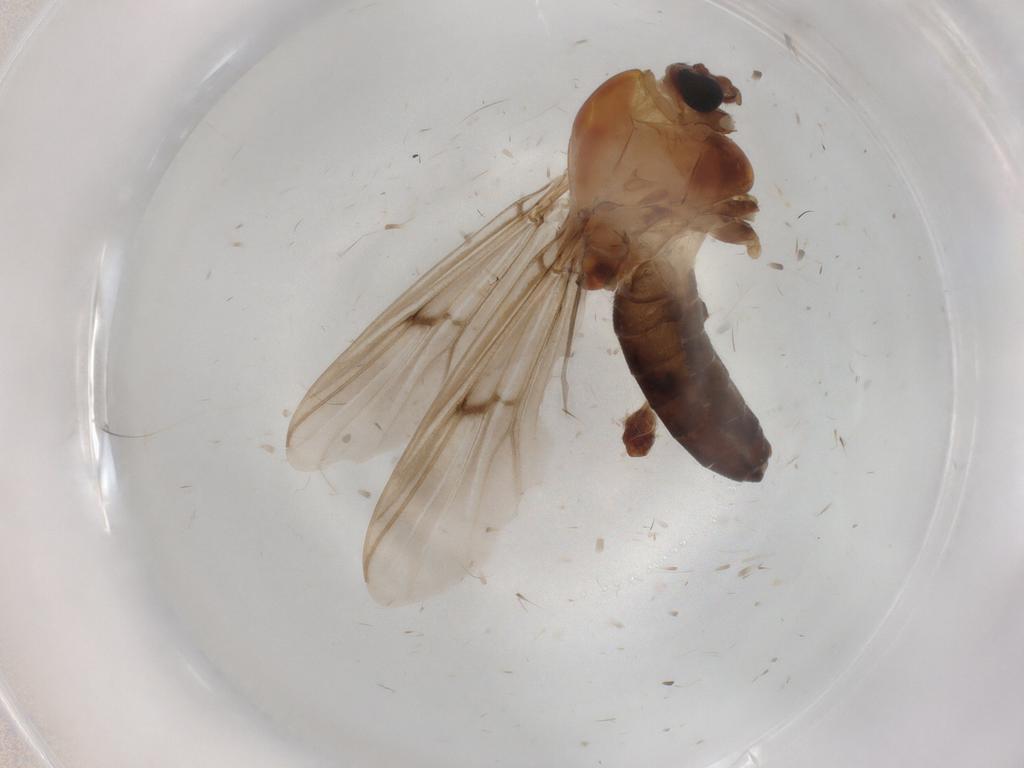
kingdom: Animalia
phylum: Arthropoda
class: Insecta
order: Diptera
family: Chironomidae
